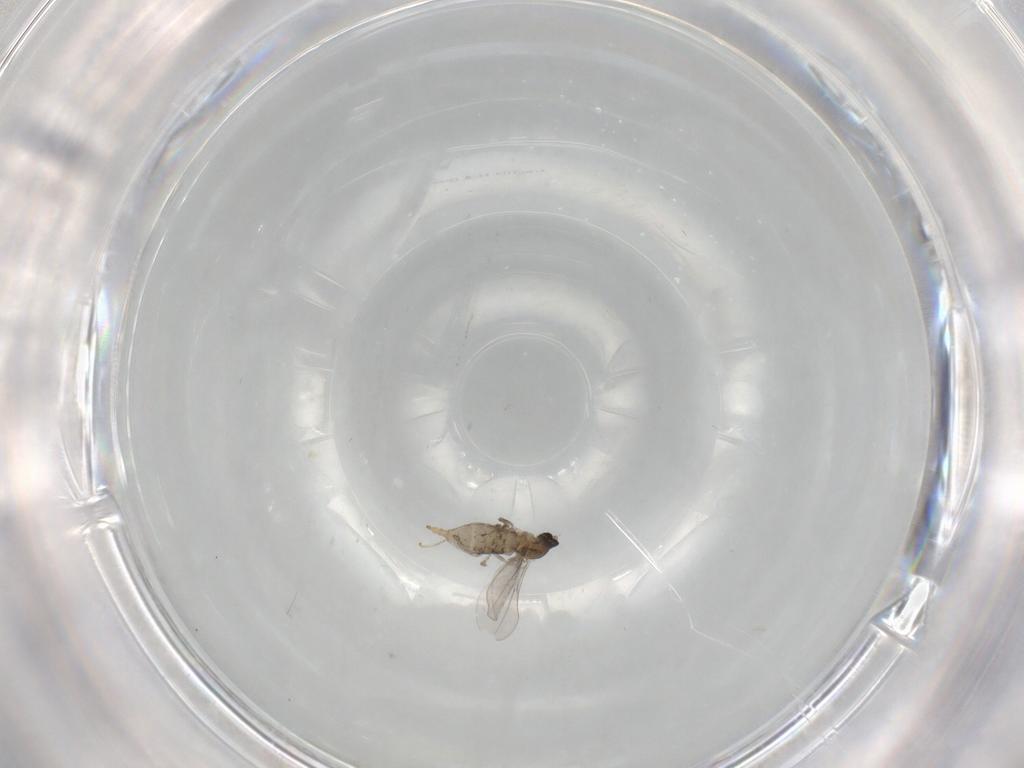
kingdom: Animalia
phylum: Arthropoda
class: Insecta
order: Diptera
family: Cecidomyiidae
